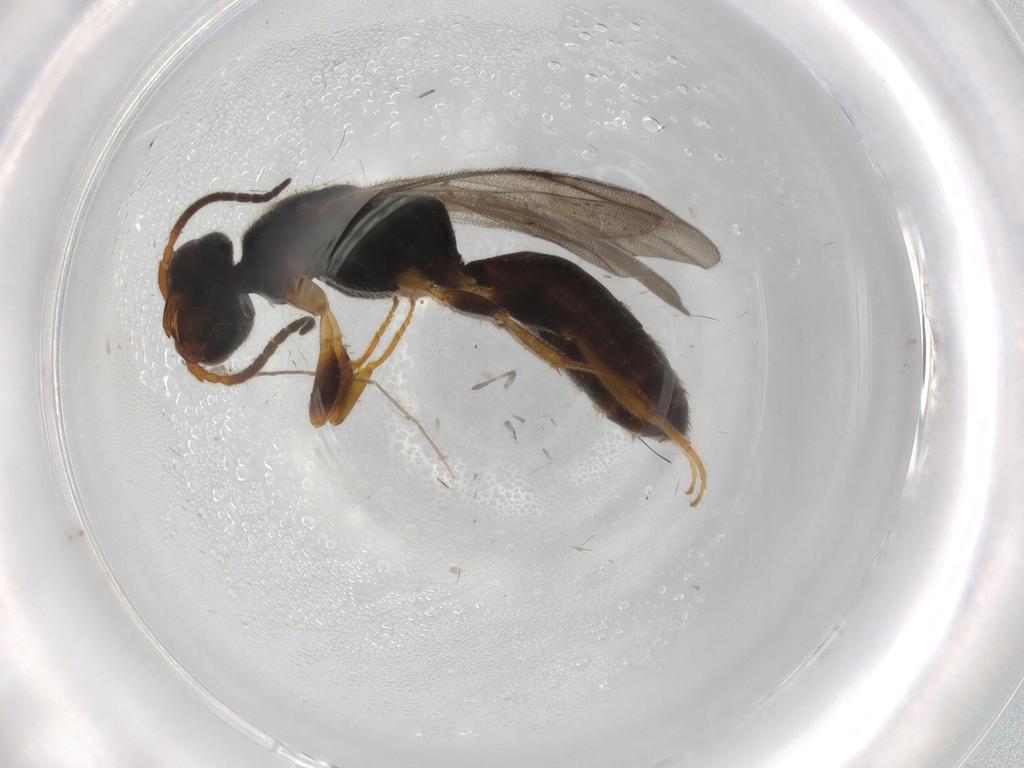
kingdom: Animalia
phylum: Arthropoda
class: Insecta
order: Hymenoptera
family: Bethylidae
